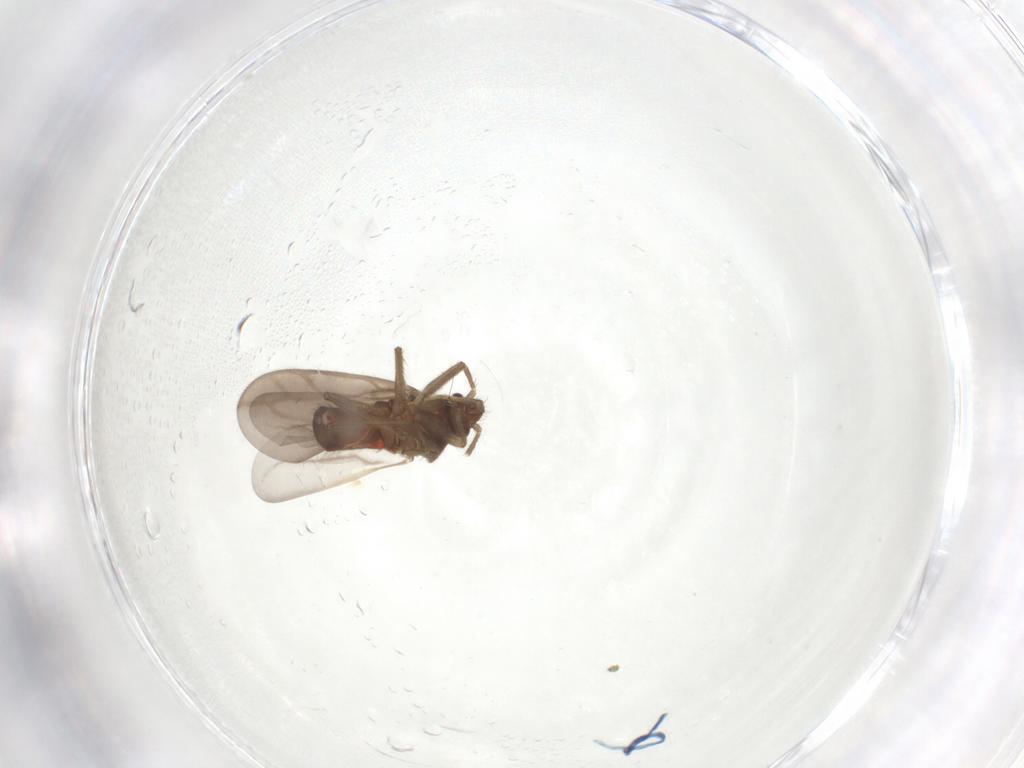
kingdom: Animalia
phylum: Arthropoda
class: Insecta
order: Hemiptera
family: Ceratocombidae
